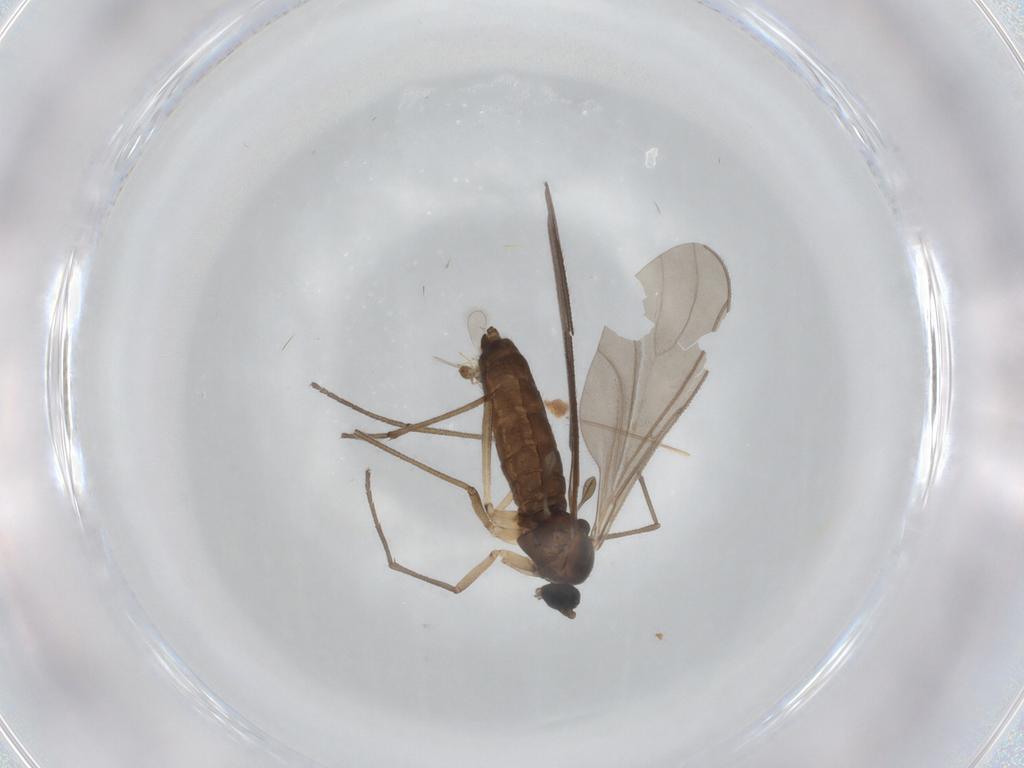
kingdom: Animalia
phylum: Arthropoda
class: Insecta
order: Diptera
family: Sciaridae
